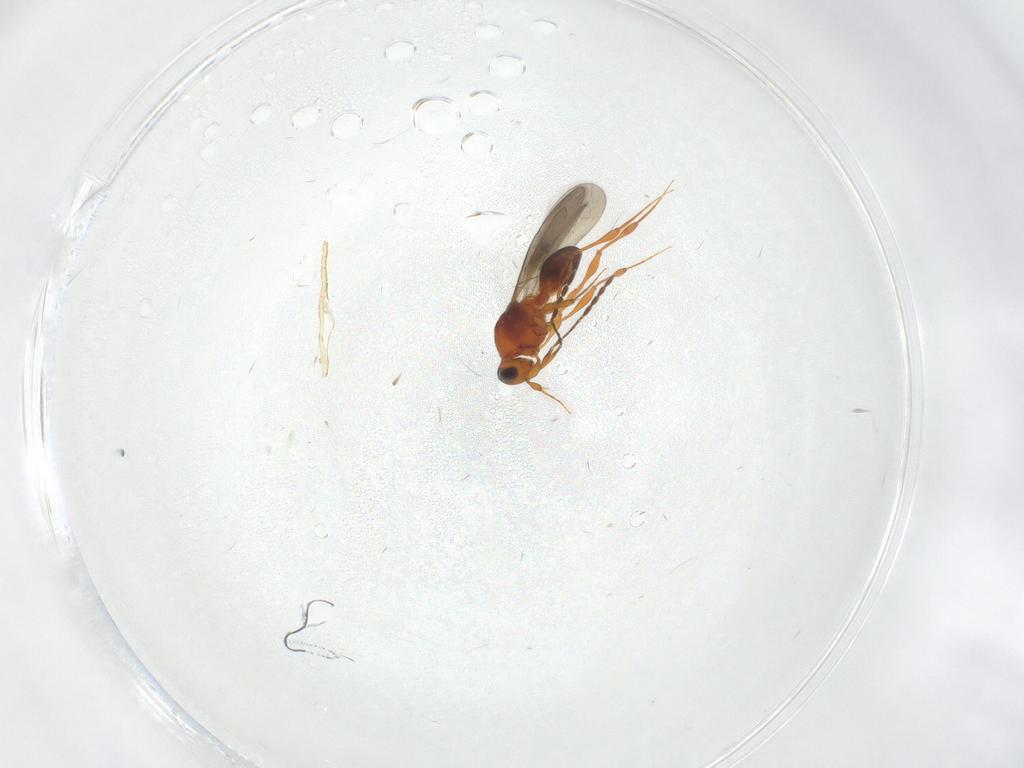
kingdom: Animalia
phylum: Arthropoda
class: Insecta
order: Hymenoptera
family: Platygastridae
